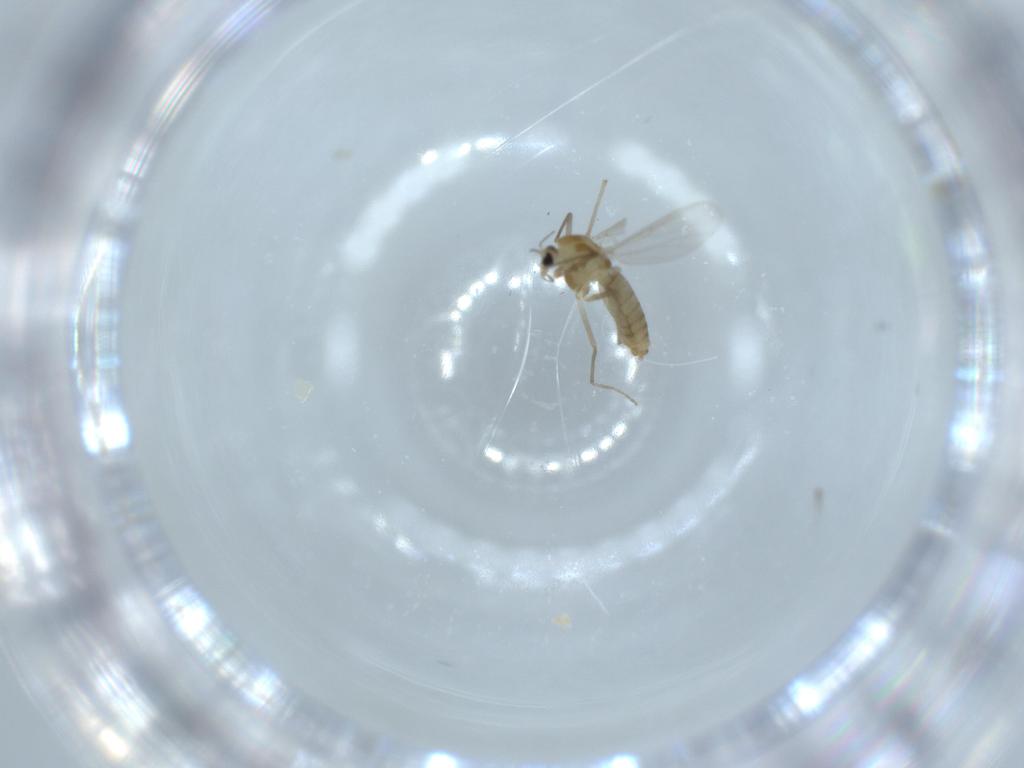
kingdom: Animalia
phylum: Arthropoda
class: Insecta
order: Diptera
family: Chironomidae
